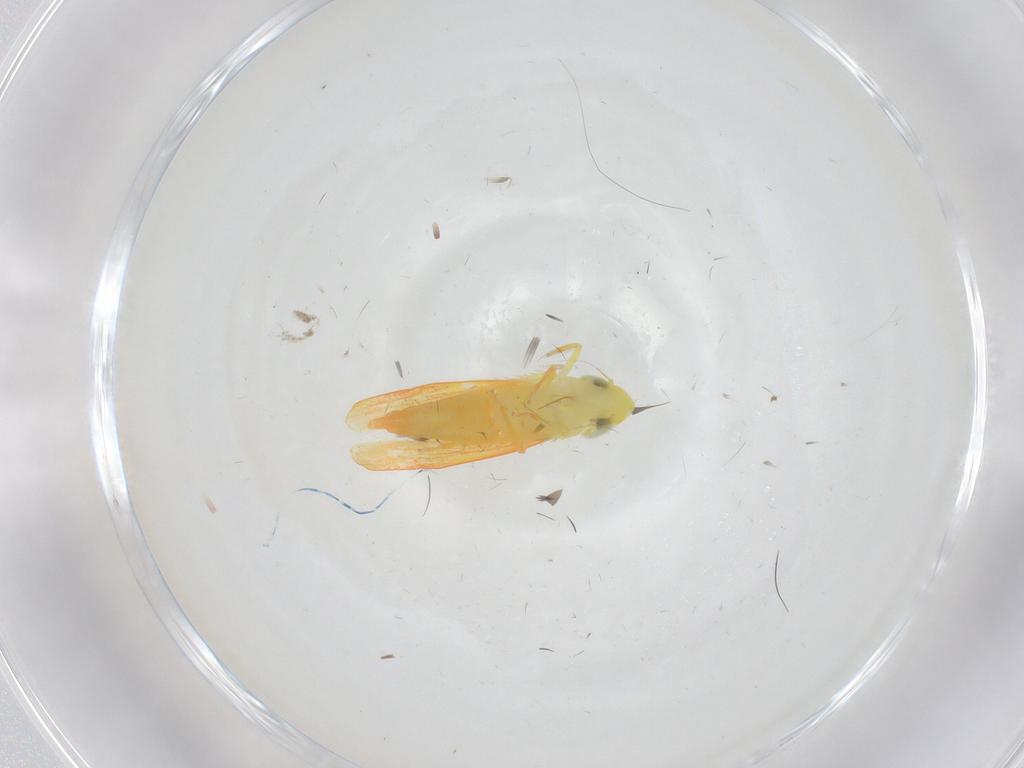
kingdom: Animalia
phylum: Arthropoda
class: Insecta
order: Hemiptera
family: Cicadellidae
